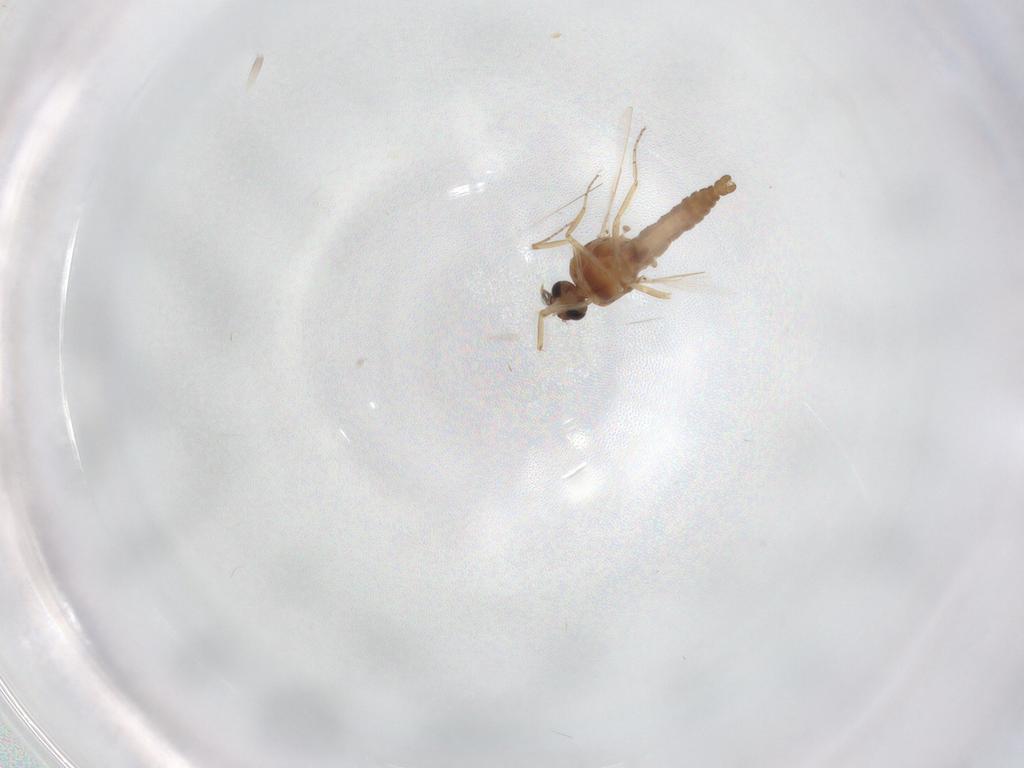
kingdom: Animalia
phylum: Arthropoda
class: Insecta
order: Diptera
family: Ceratopogonidae
